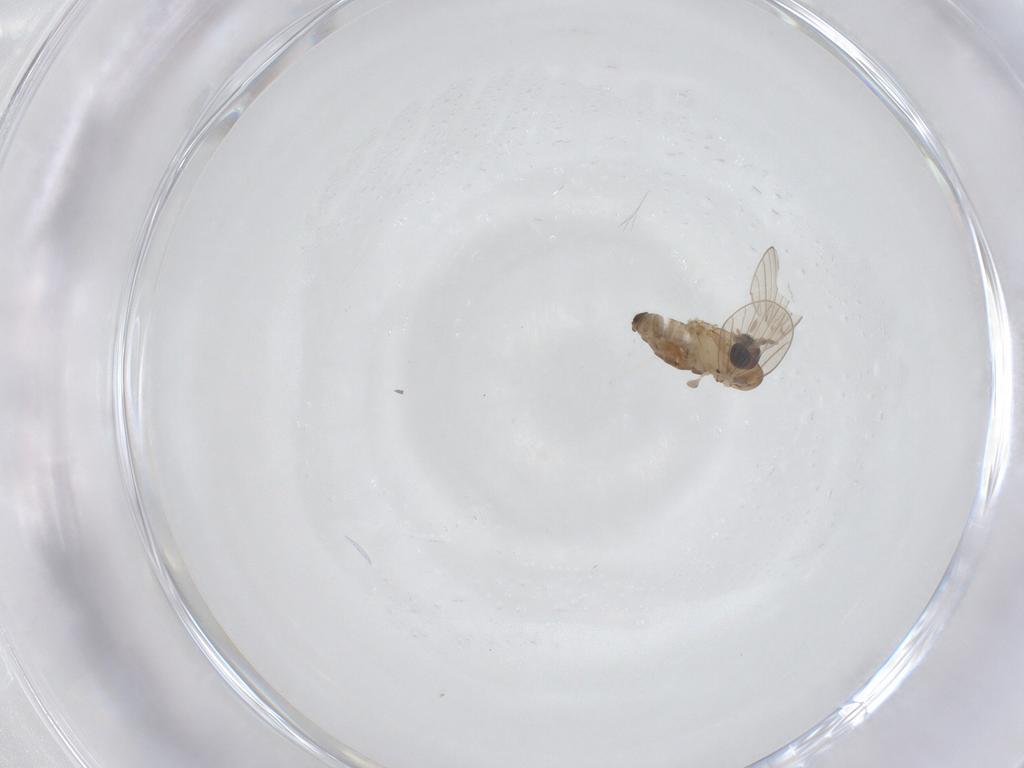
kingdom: Animalia
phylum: Arthropoda
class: Insecta
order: Diptera
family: Psychodidae
